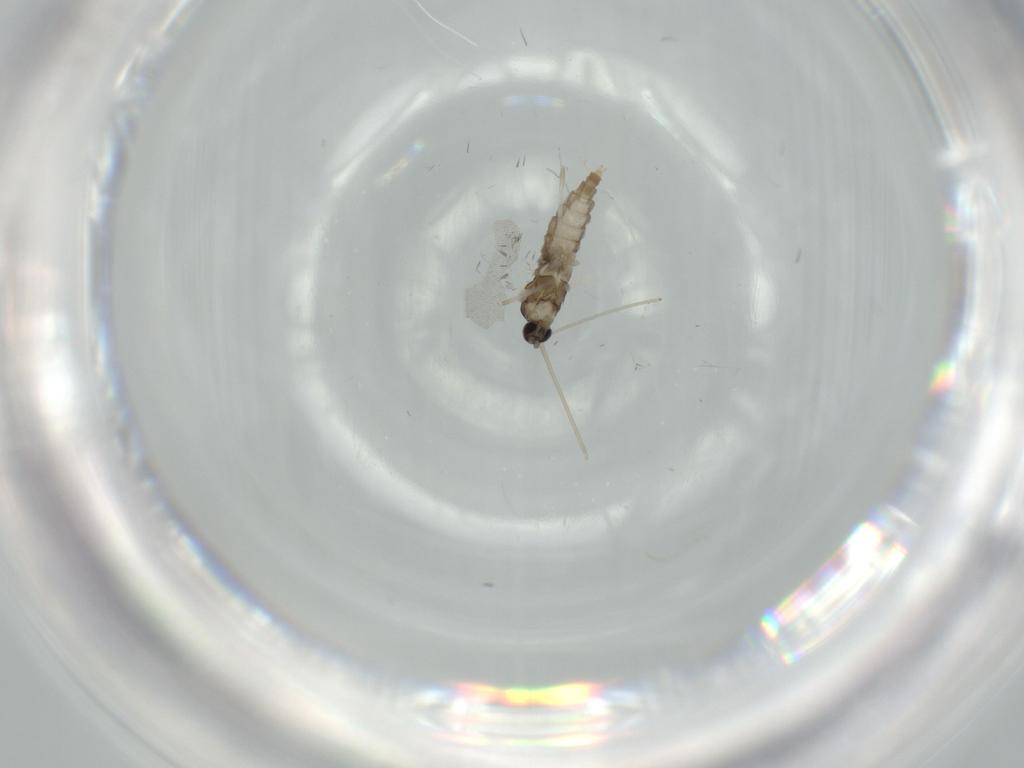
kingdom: Animalia
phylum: Arthropoda
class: Insecta
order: Diptera
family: Cecidomyiidae
